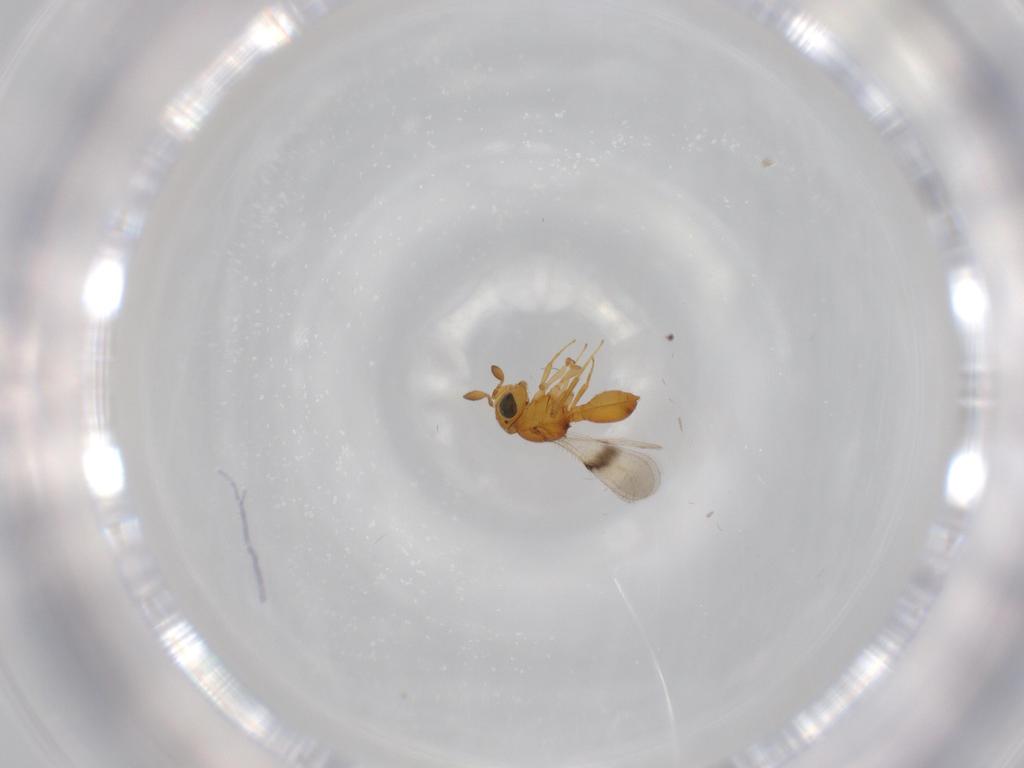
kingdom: Animalia
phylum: Arthropoda
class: Insecta
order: Hymenoptera
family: Scelionidae
